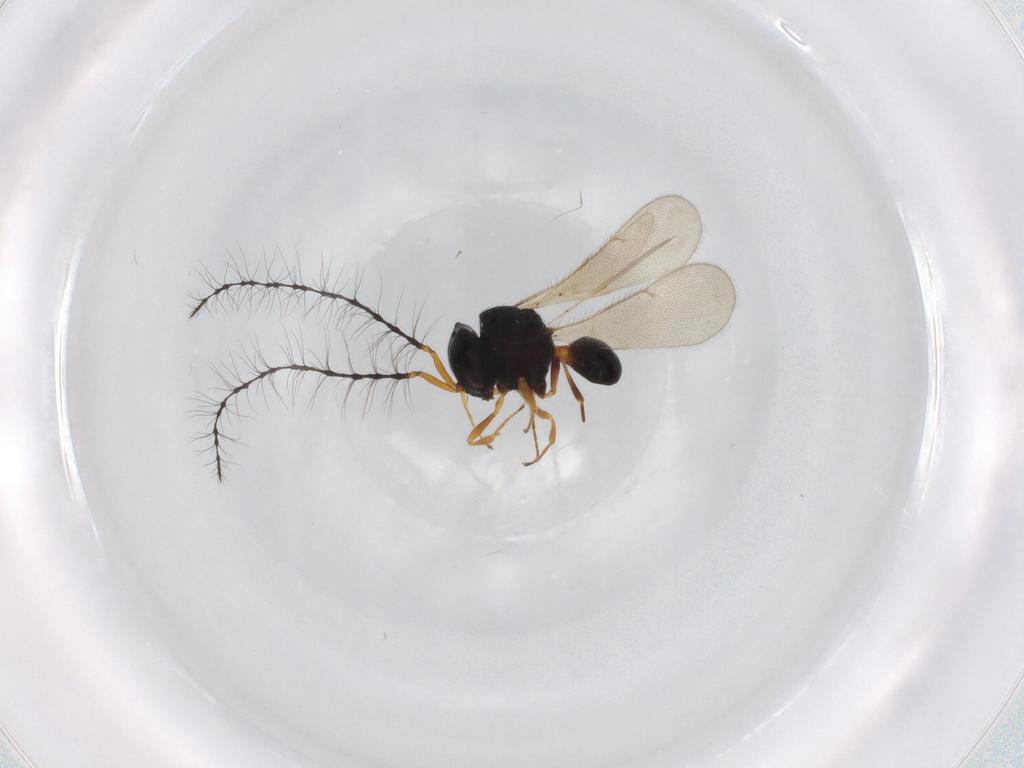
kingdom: Animalia
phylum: Arthropoda
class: Insecta
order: Hymenoptera
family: Scelionidae
